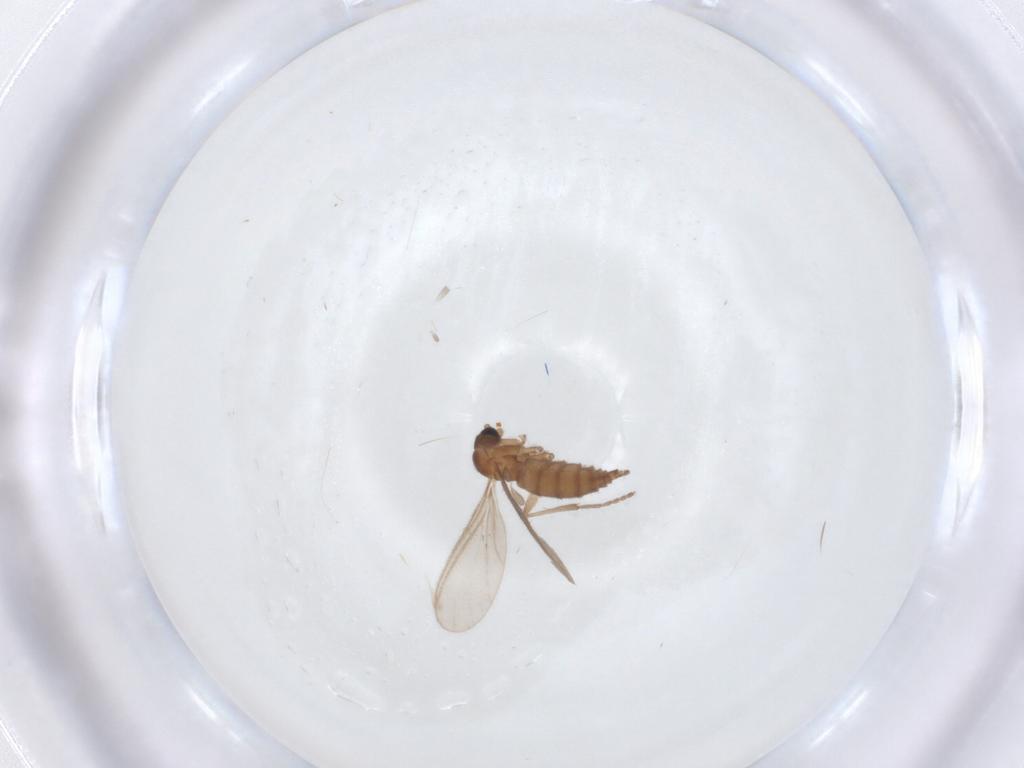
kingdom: Animalia
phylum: Arthropoda
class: Insecta
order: Diptera
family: Sciaridae
